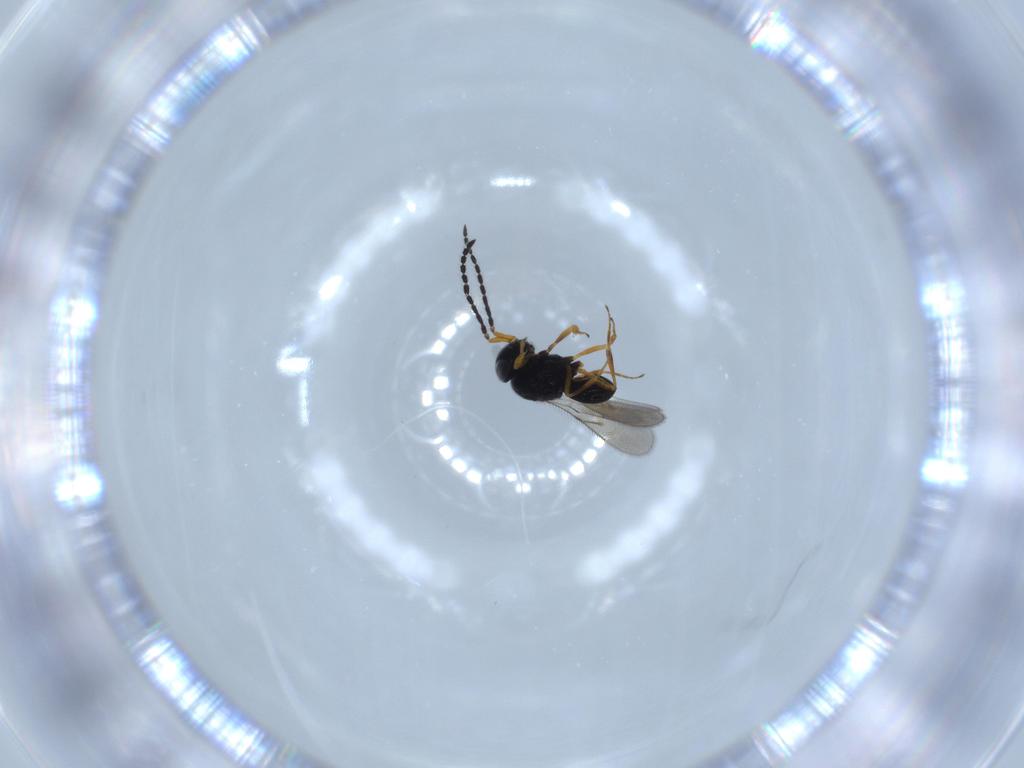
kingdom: Animalia
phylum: Arthropoda
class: Insecta
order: Hymenoptera
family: Scelionidae
